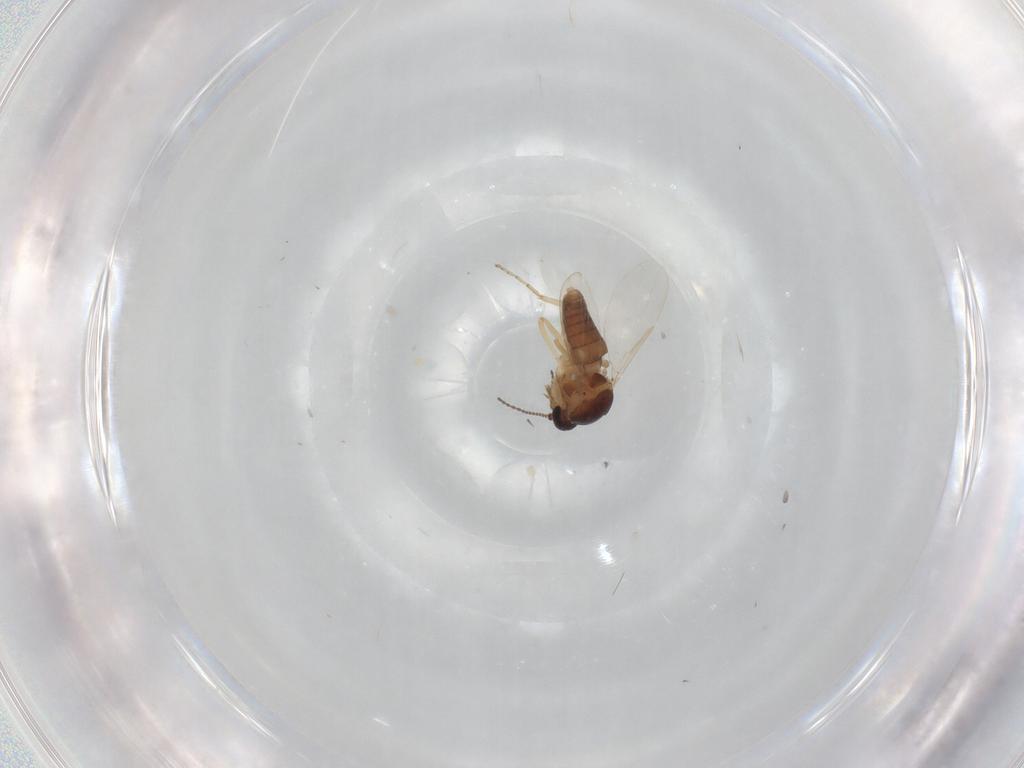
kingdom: Animalia
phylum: Arthropoda
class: Insecta
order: Diptera
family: Ceratopogonidae
